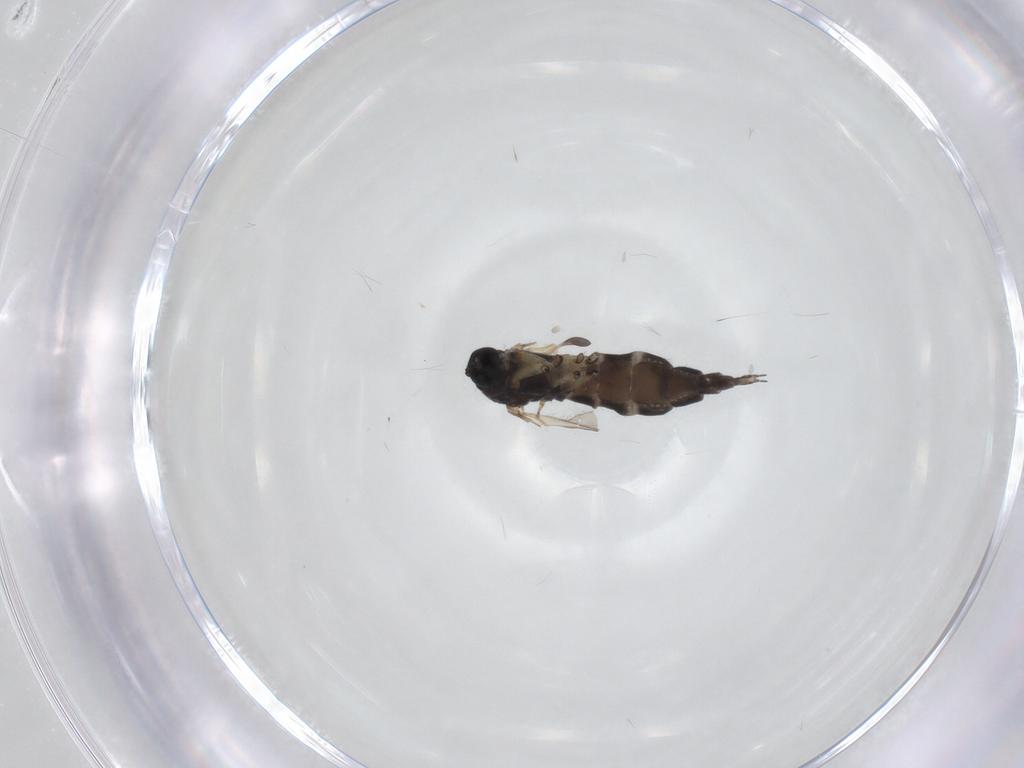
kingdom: Animalia
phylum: Arthropoda
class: Insecta
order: Diptera
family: Sciaridae
